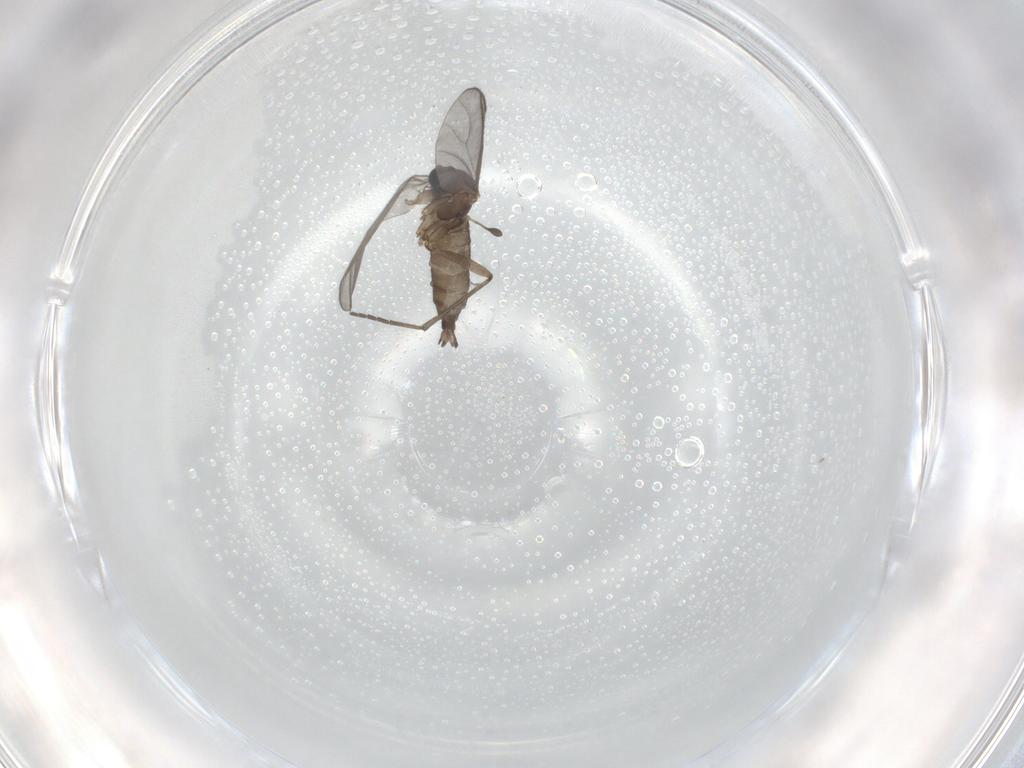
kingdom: Animalia
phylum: Arthropoda
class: Insecta
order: Diptera
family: Sciaridae
